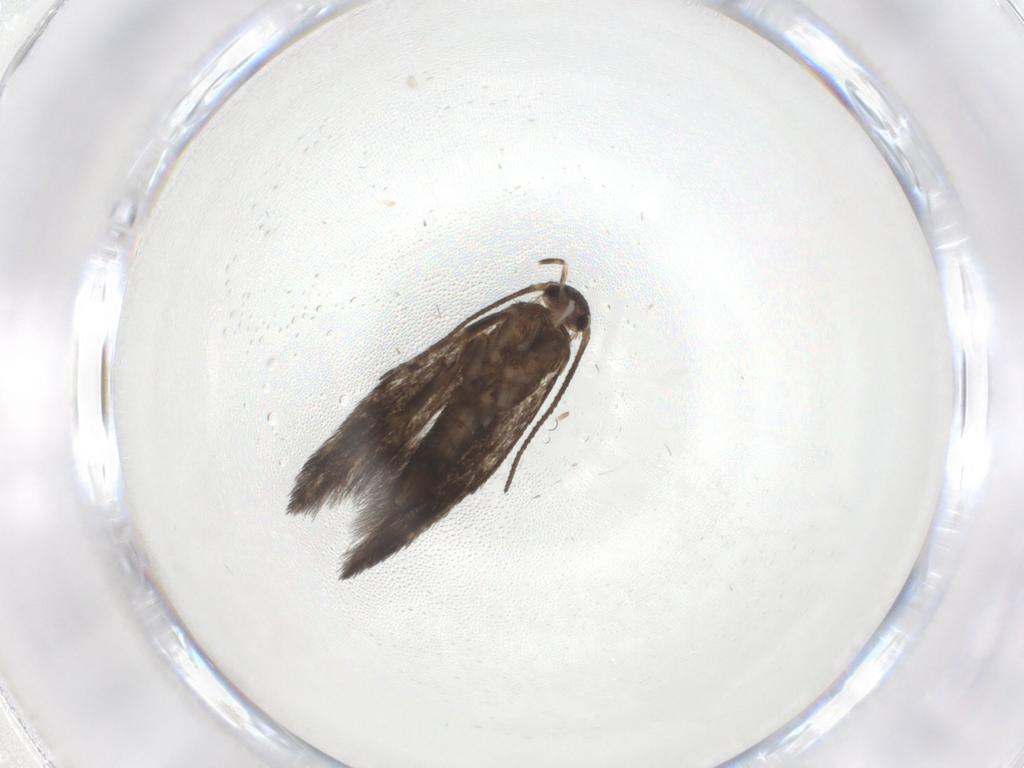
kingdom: Animalia
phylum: Arthropoda
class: Insecta
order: Lepidoptera
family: Elachistidae
